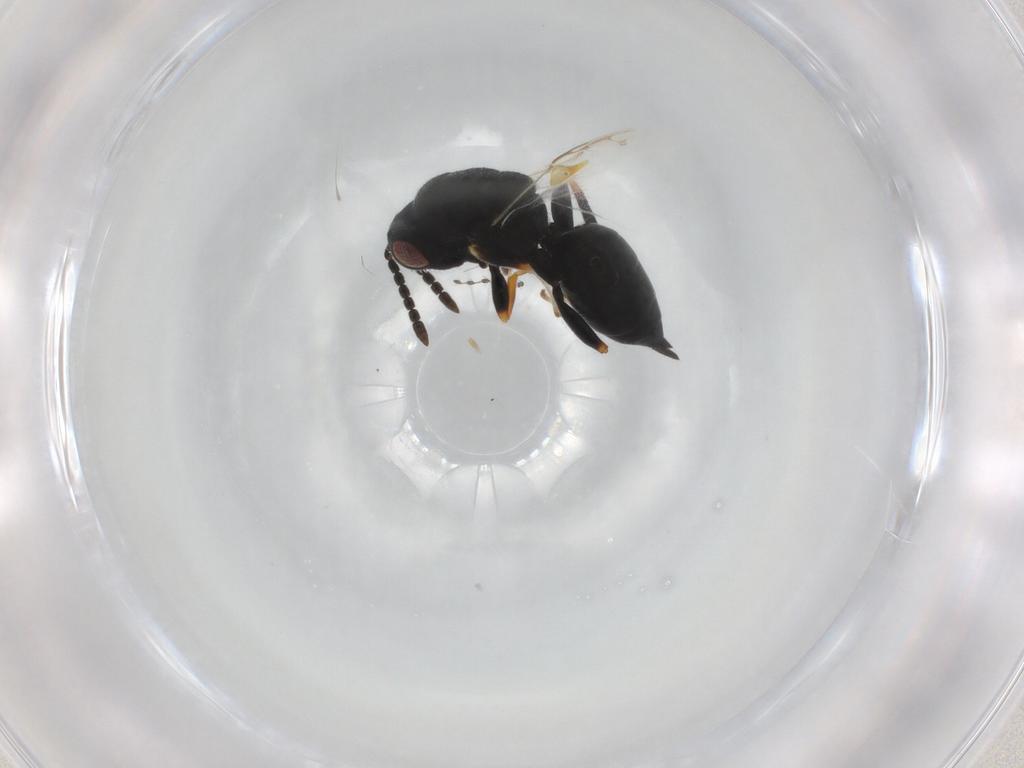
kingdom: Animalia
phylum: Arthropoda
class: Insecta
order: Hymenoptera
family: Eurytomidae
